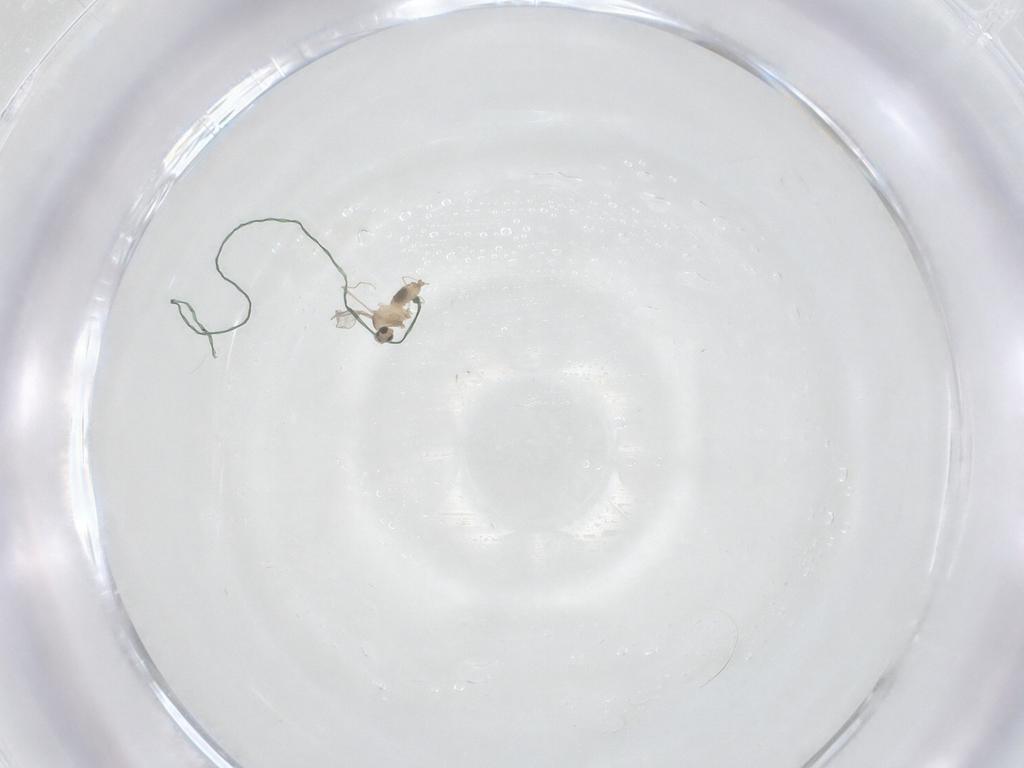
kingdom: Animalia
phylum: Arthropoda
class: Insecta
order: Diptera
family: Cecidomyiidae
